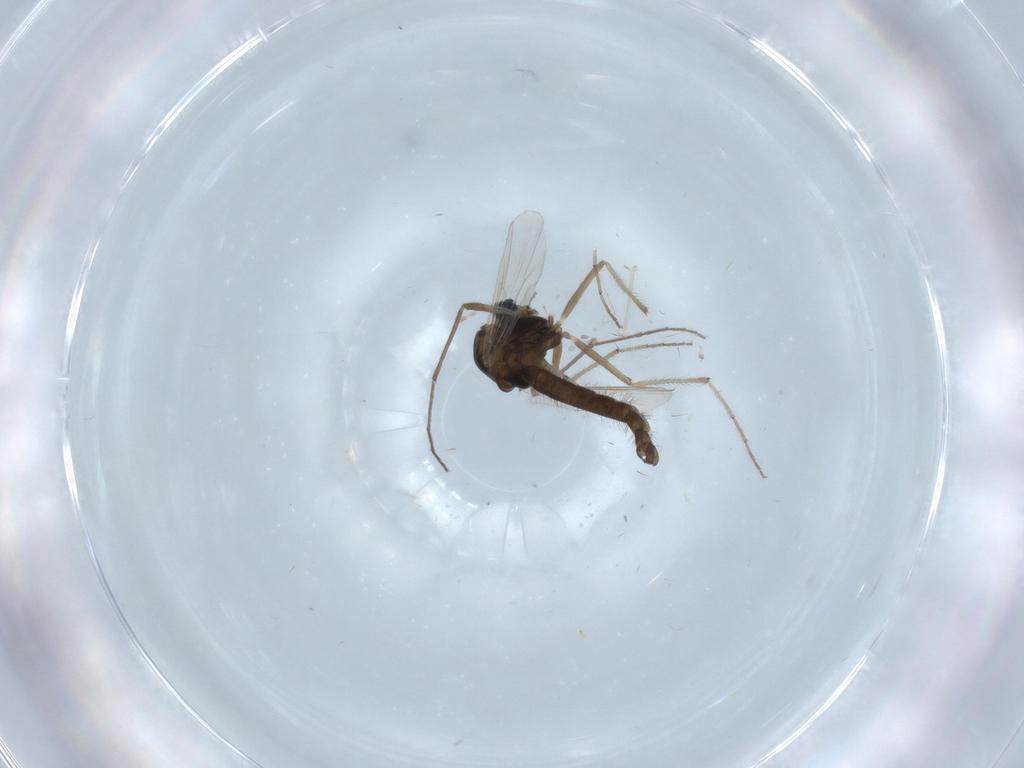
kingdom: Animalia
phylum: Arthropoda
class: Insecta
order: Diptera
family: Chironomidae
